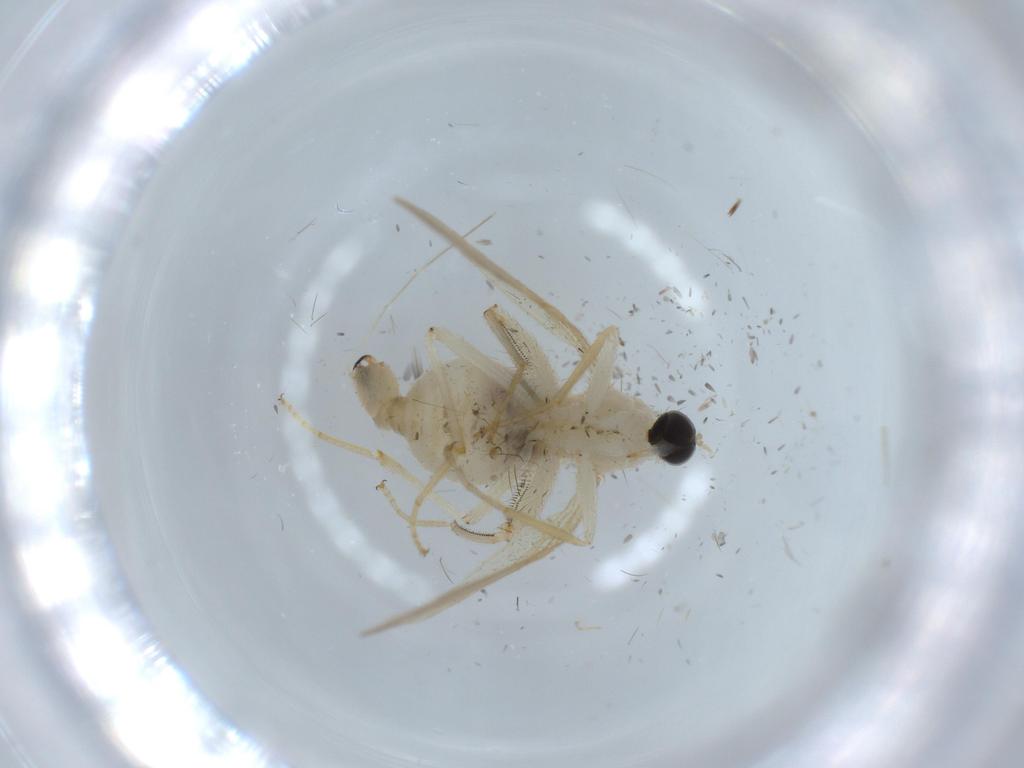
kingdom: Animalia
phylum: Arthropoda
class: Insecta
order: Diptera
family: Hybotidae
